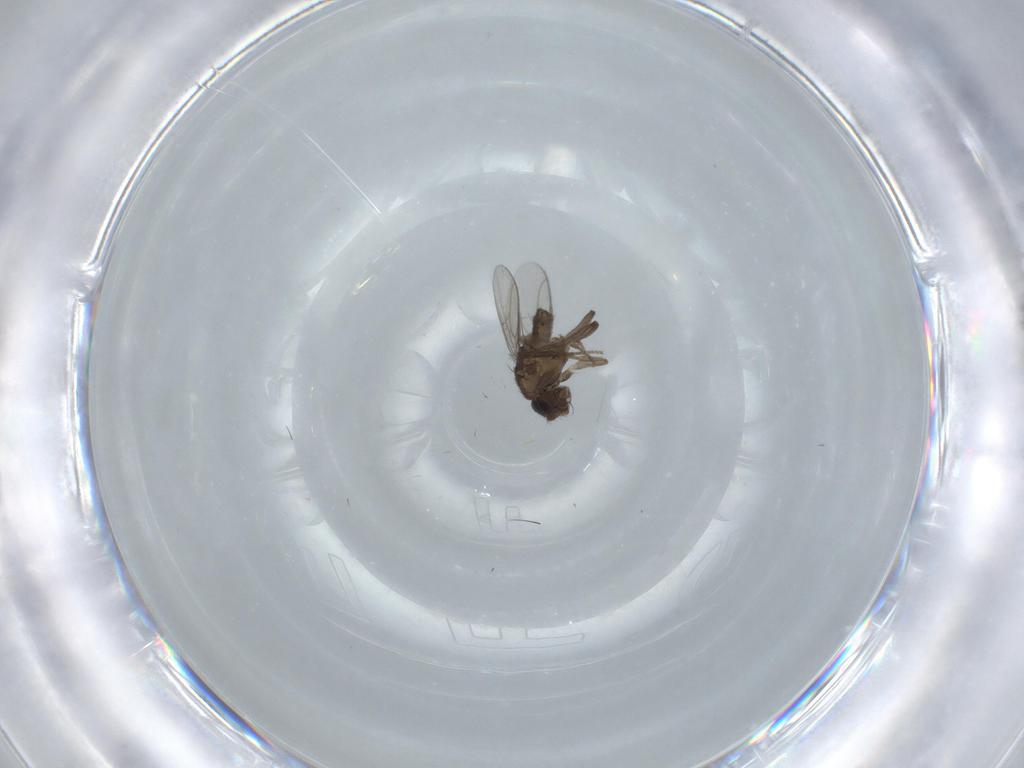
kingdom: Animalia
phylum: Arthropoda
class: Insecta
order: Diptera
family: Sphaeroceridae
